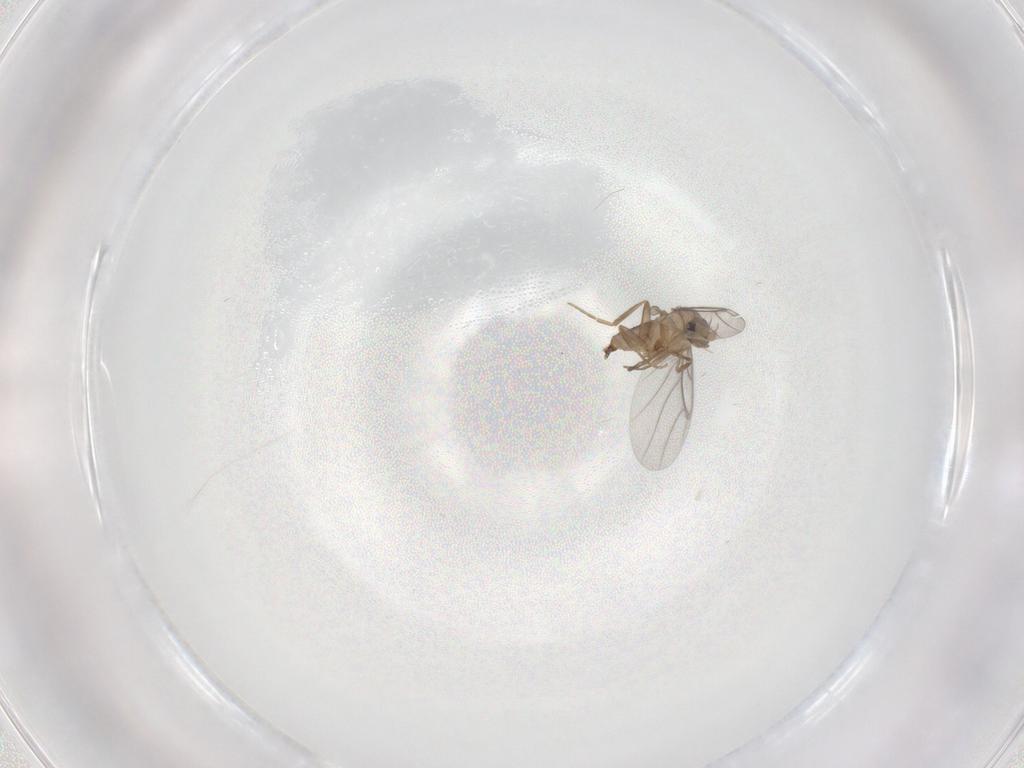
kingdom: Animalia
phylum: Arthropoda
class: Insecta
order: Diptera
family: Cecidomyiidae
